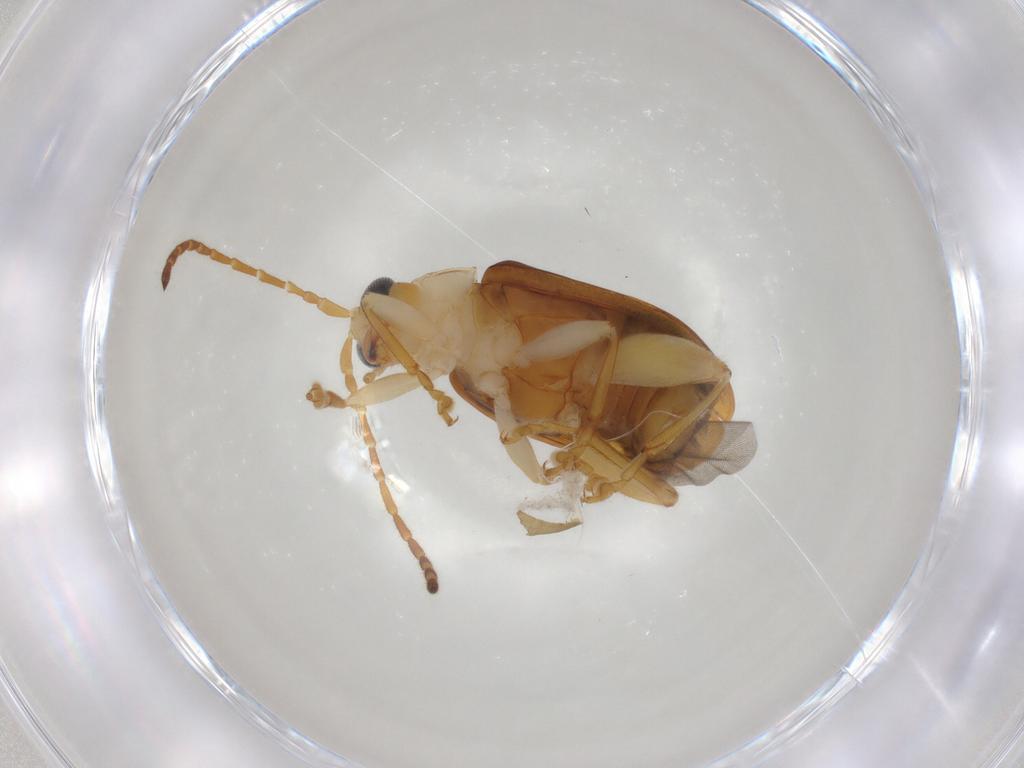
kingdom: Animalia
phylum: Arthropoda
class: Insecta
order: Coleoptera
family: Chrysomelidae
